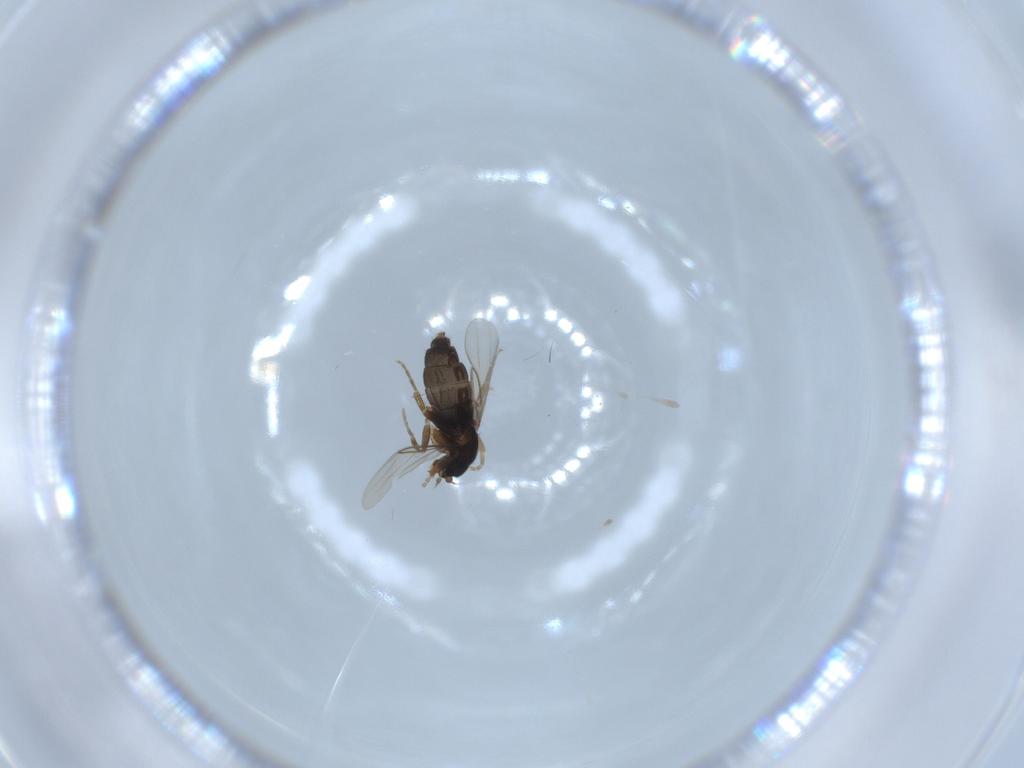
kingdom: Animalia
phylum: Arthropoda
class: Insecta
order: Diptera
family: Phoridae
